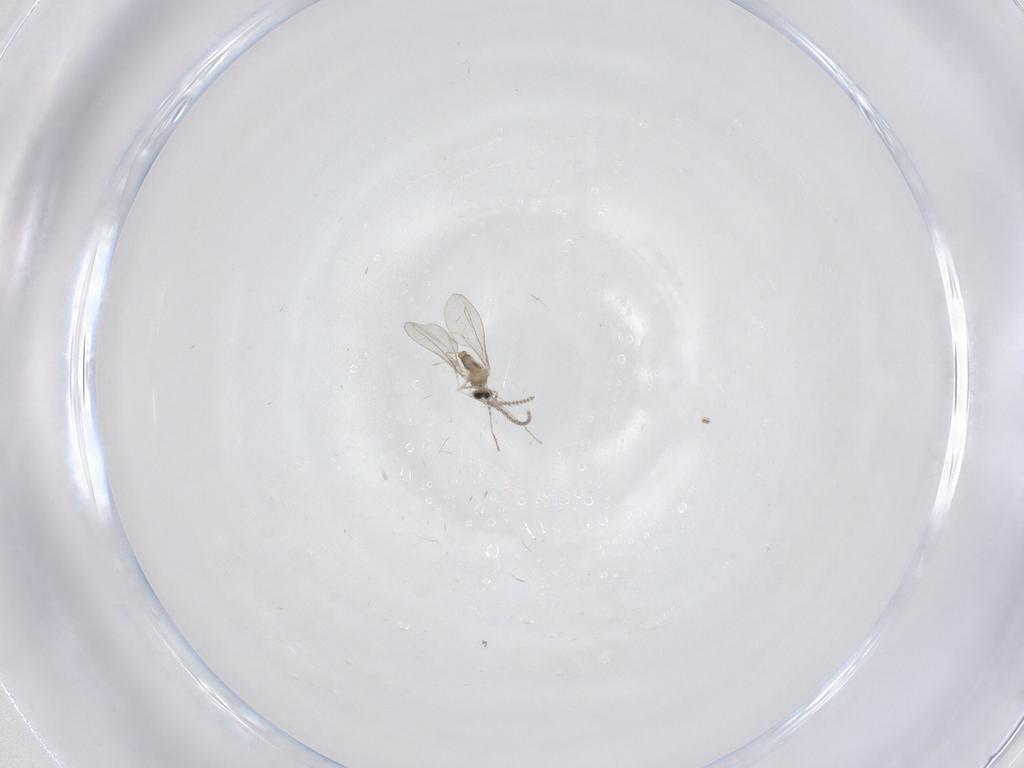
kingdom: Animalia
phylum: Arthropoda
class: Insecta
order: Diptera
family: Cecidomyiidae
